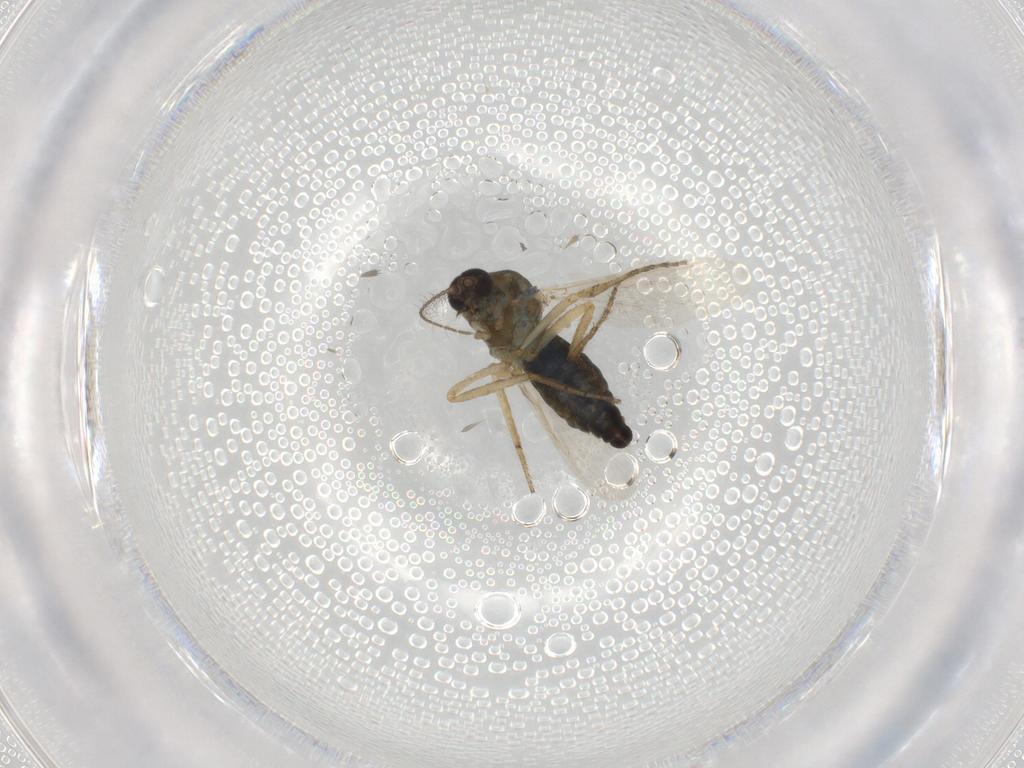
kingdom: Animalia
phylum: Arthropoda
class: Insecta
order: Diptera
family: Ceratopogonidae
